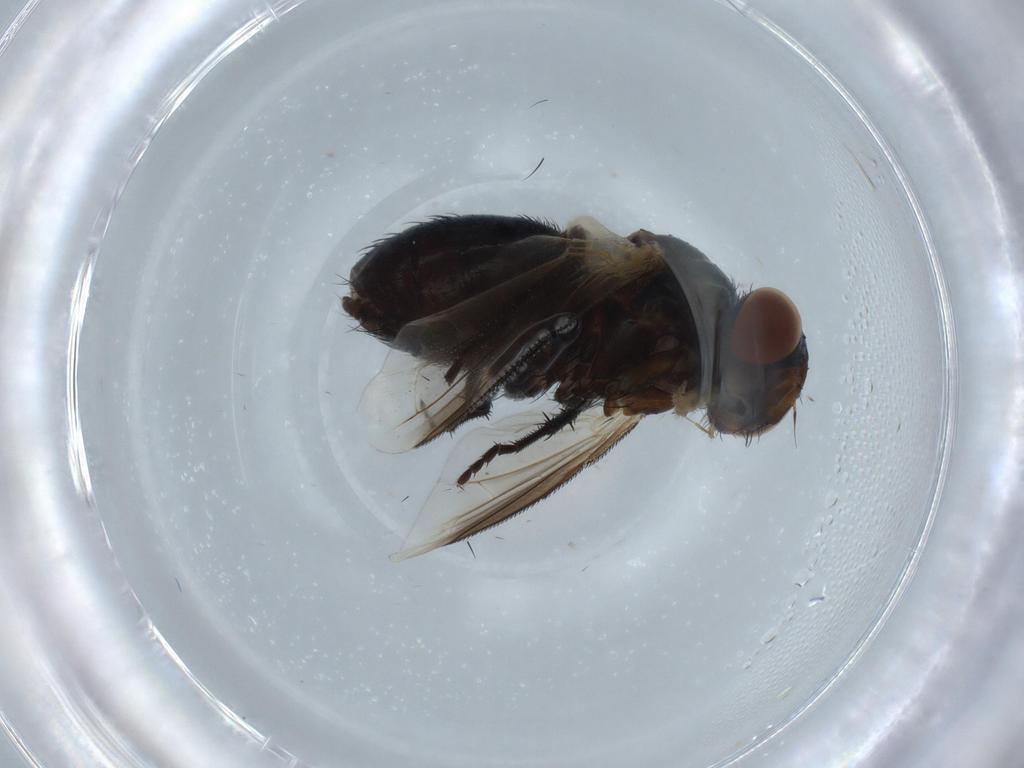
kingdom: Animalia
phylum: Arthropoda
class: Insecta
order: Diptera
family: Tachinidae
